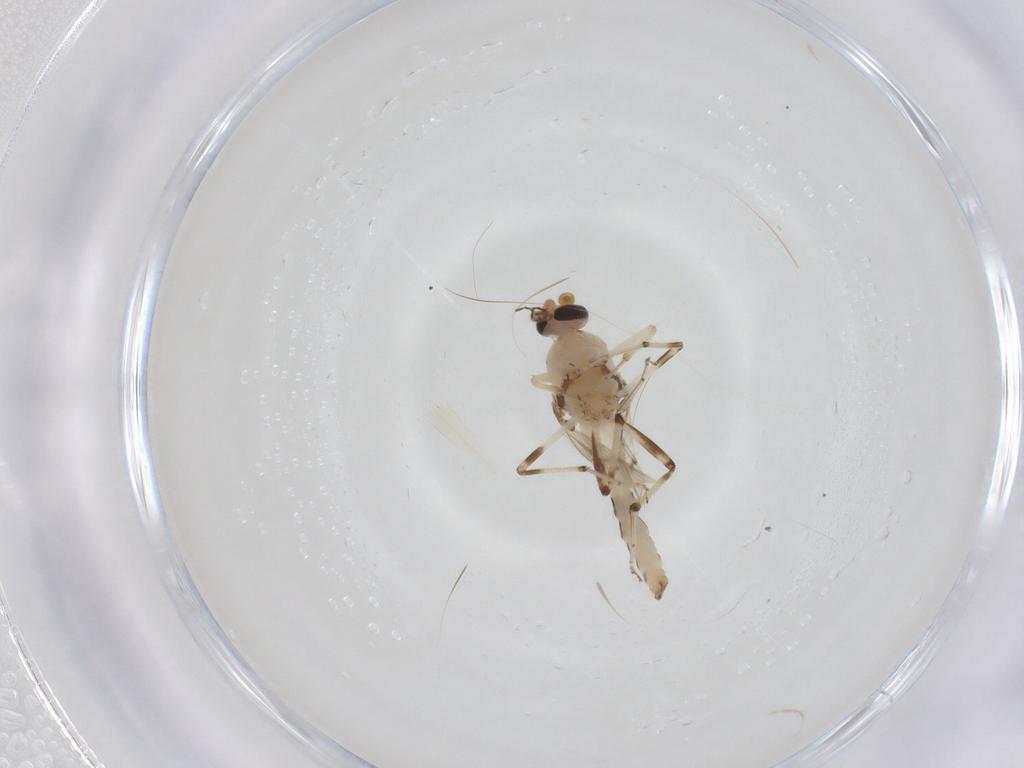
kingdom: Animalia
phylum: Arthropoda
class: Insecta
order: Diptera
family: Ceratopogonidae
